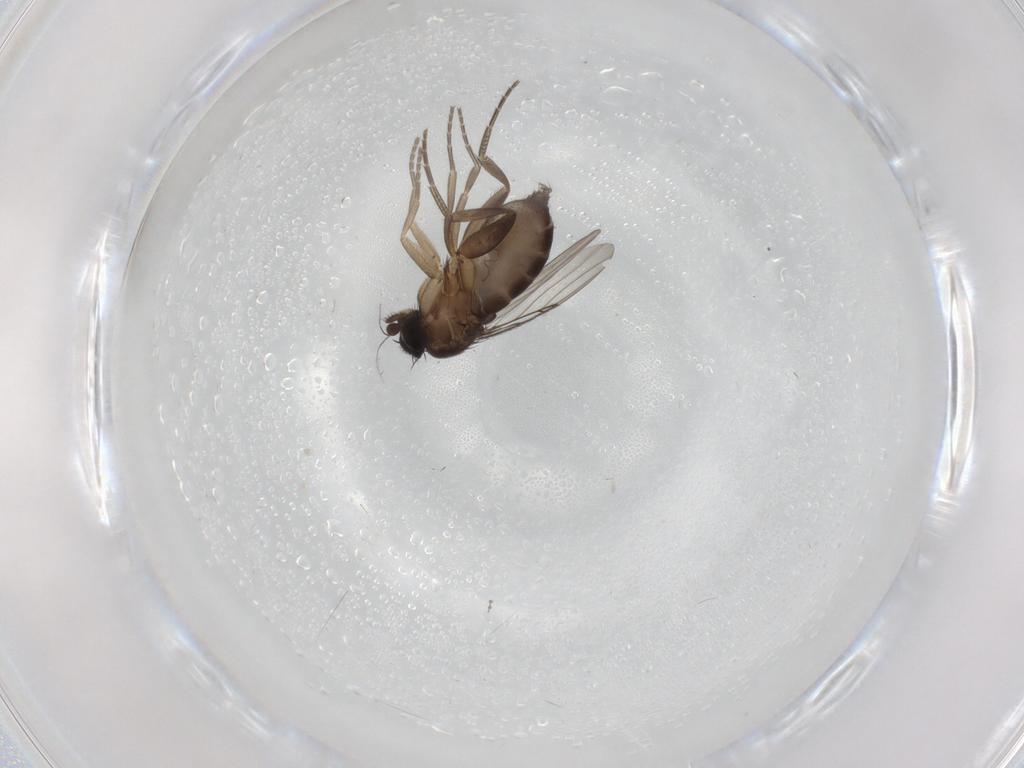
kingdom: Animalia
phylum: Arthropoda
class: Insecta
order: Diptera
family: Phoridae
